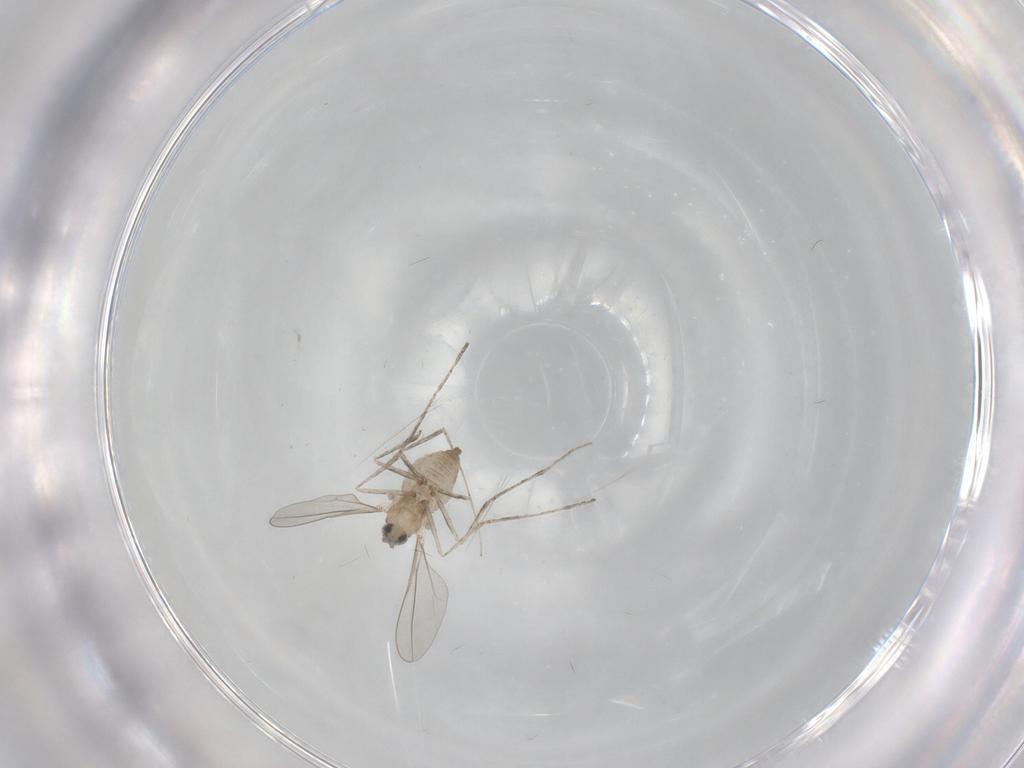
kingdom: Animalia
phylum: Arthropoda
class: Insecta
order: Diptera
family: Cecidomyiidae
